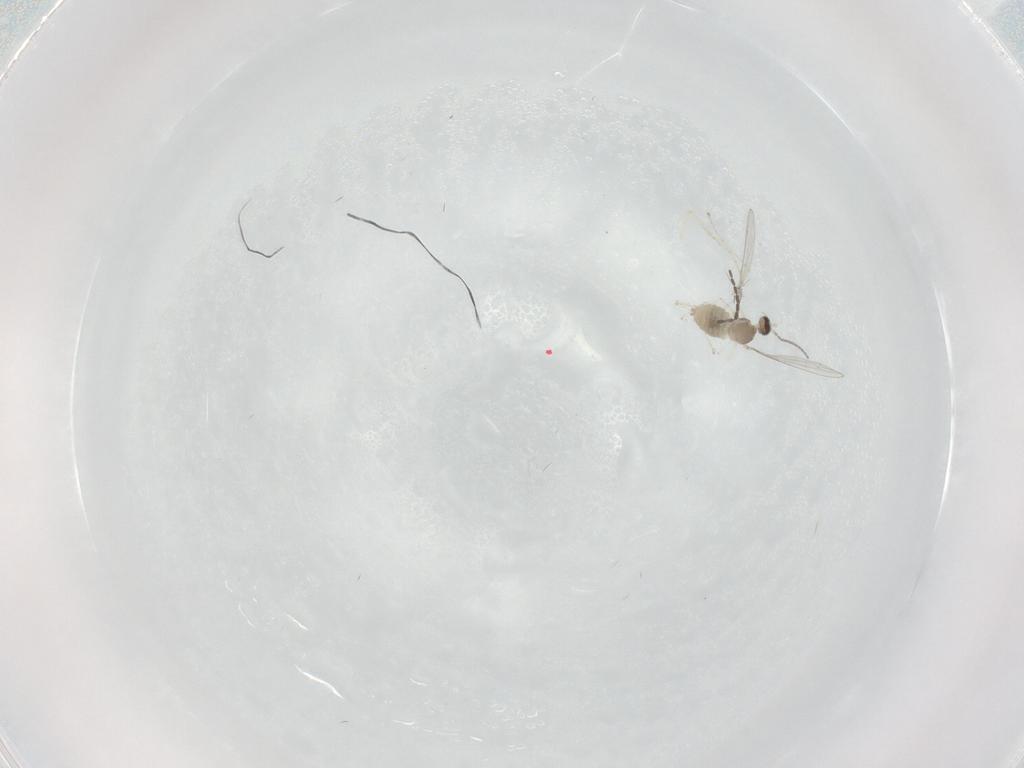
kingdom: Animalia
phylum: Arthropoda
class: Insecta
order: Diptera
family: Cecidomyiidae
